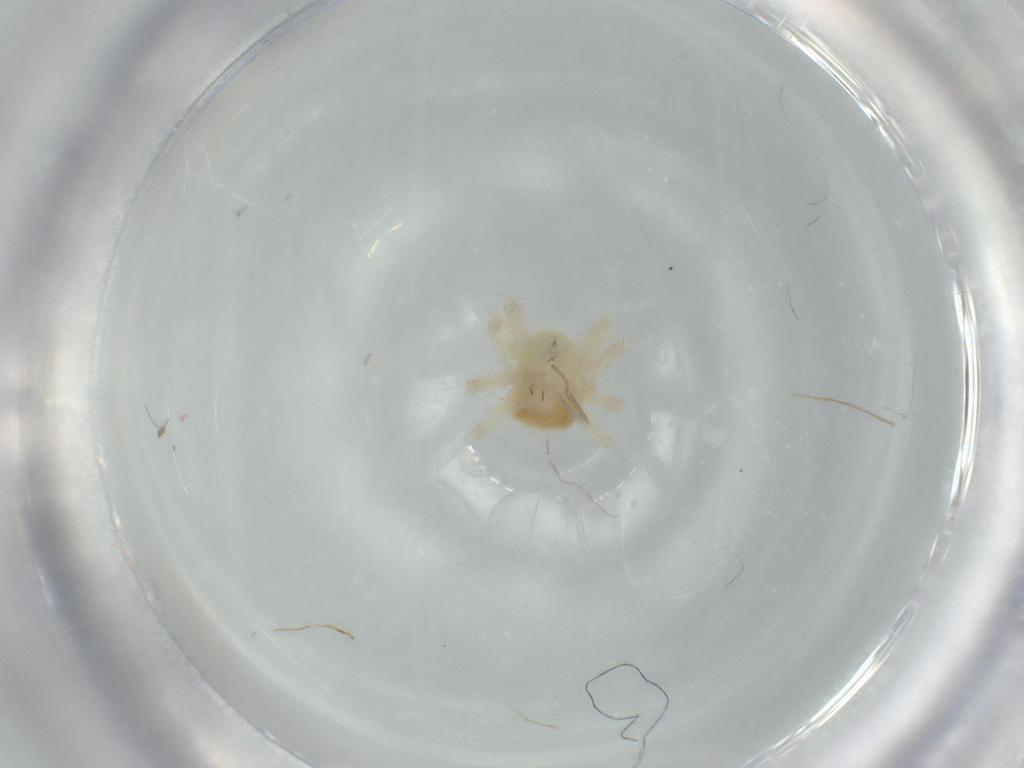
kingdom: Animalia
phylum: Arthropoda
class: Arachnida
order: Trombidiformes
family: Anystidae
